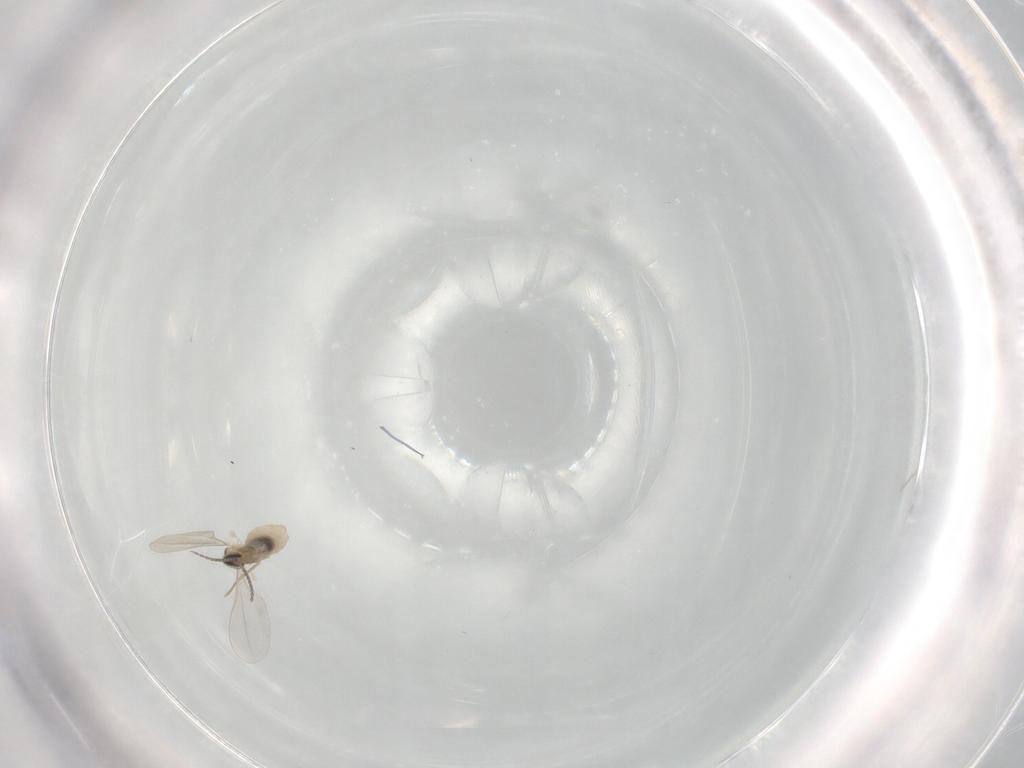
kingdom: Animalia
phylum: Arthropoda
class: Insecta
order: Diptera
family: Cecidomyiidae
